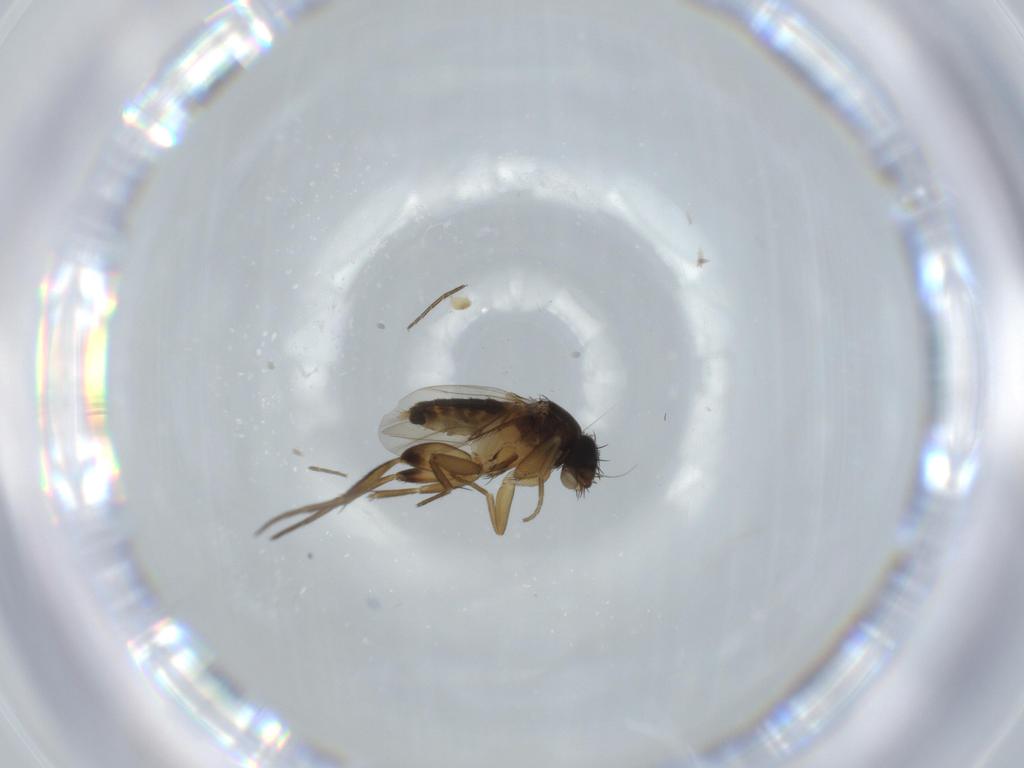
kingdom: Animalia
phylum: Arthropoda
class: Insecta
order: Diptera
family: Phoridae
